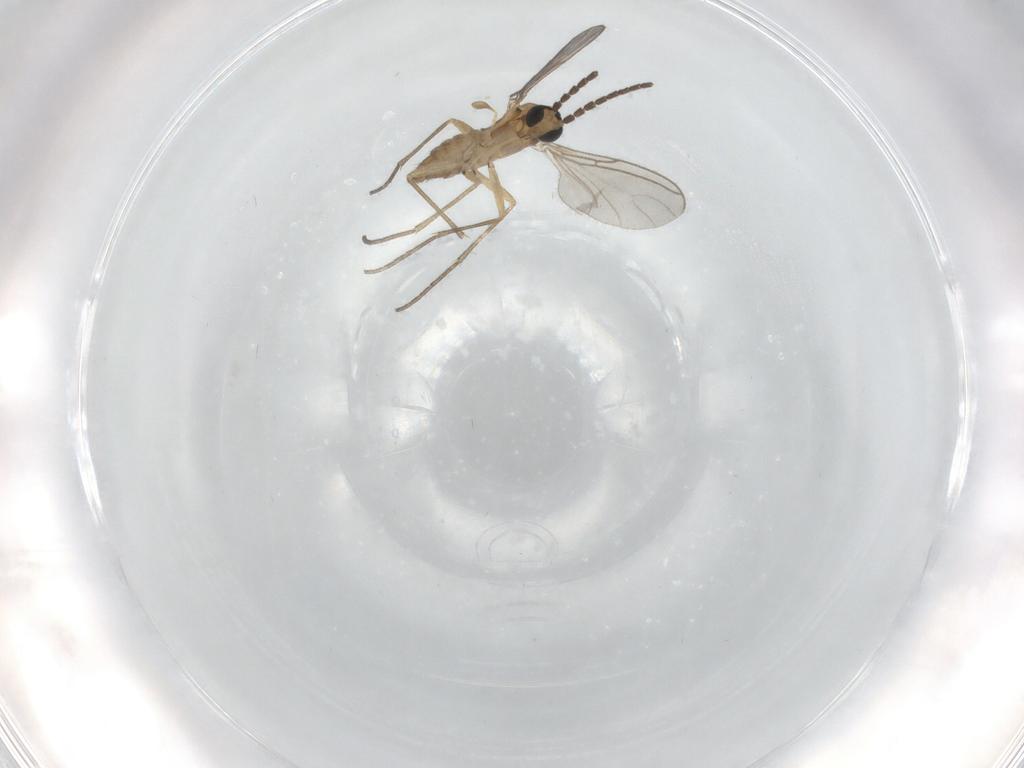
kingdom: Animalia
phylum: Arthropoda
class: Insecta
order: Diptera
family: Sciaridae
